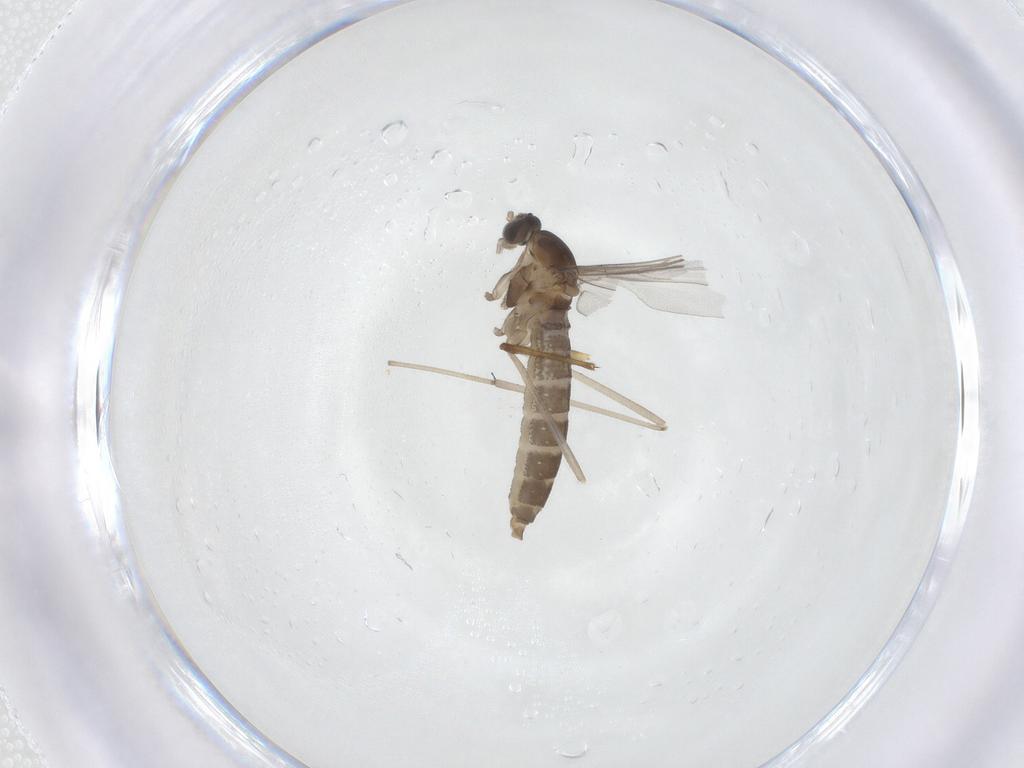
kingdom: Animalia
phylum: Arthropoda
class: Insecta
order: Diptera
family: Chironomidae
